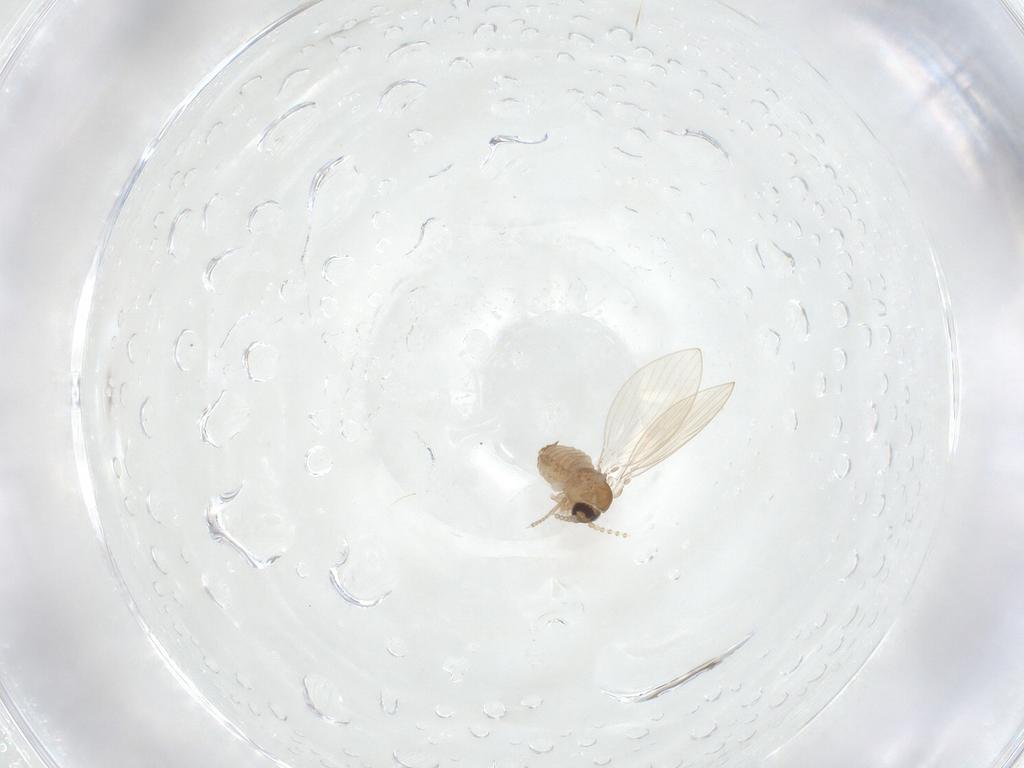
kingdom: Animalia
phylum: Arthropoda
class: Insecta
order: Diptera
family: Psychodidae
